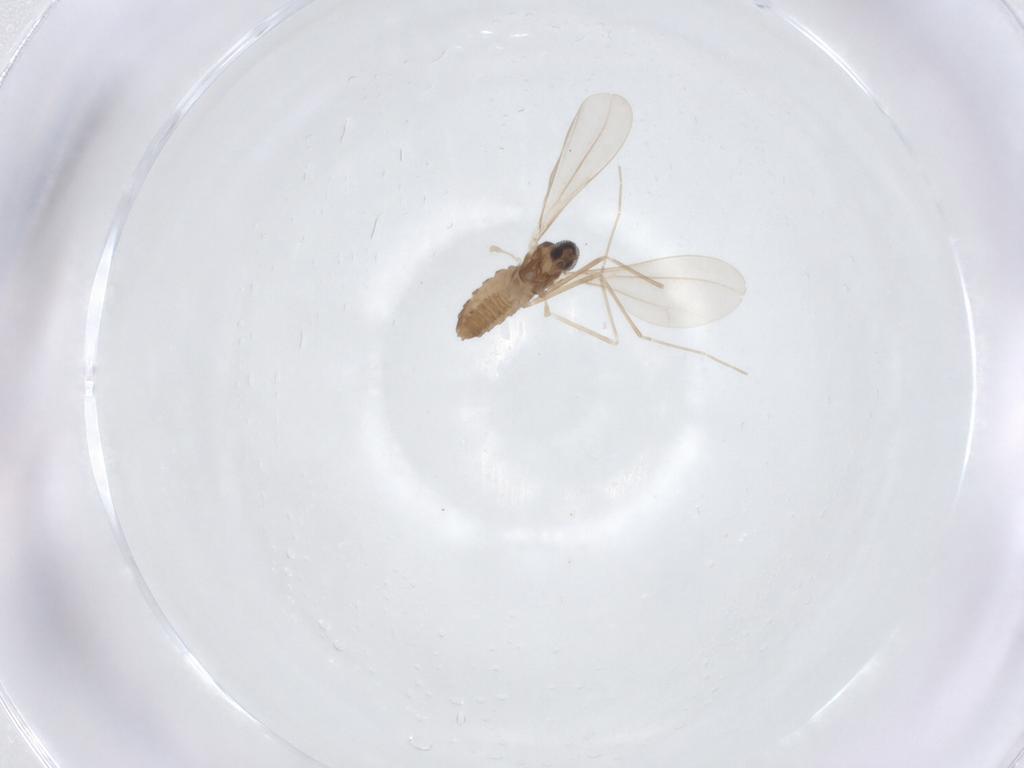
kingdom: Animalia
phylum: Arthropoda
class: Insecta
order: Diptera
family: Cecidomyiidae
